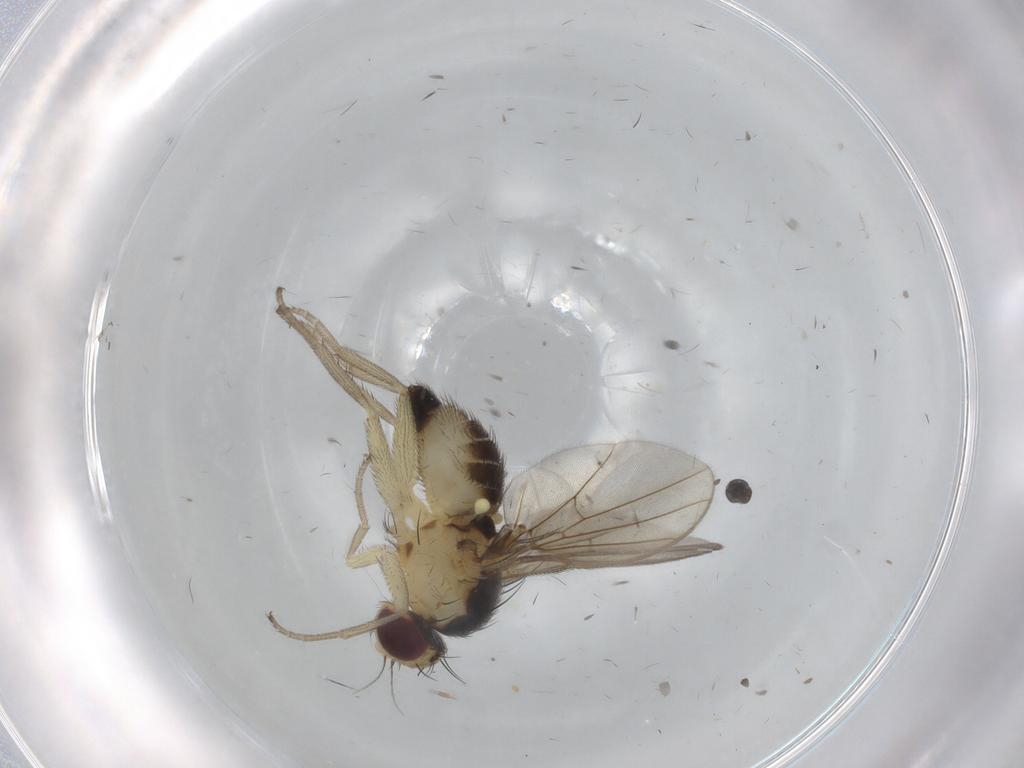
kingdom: Animalia
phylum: Arthropoda
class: Insecta
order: Diptera
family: Sciaridae
